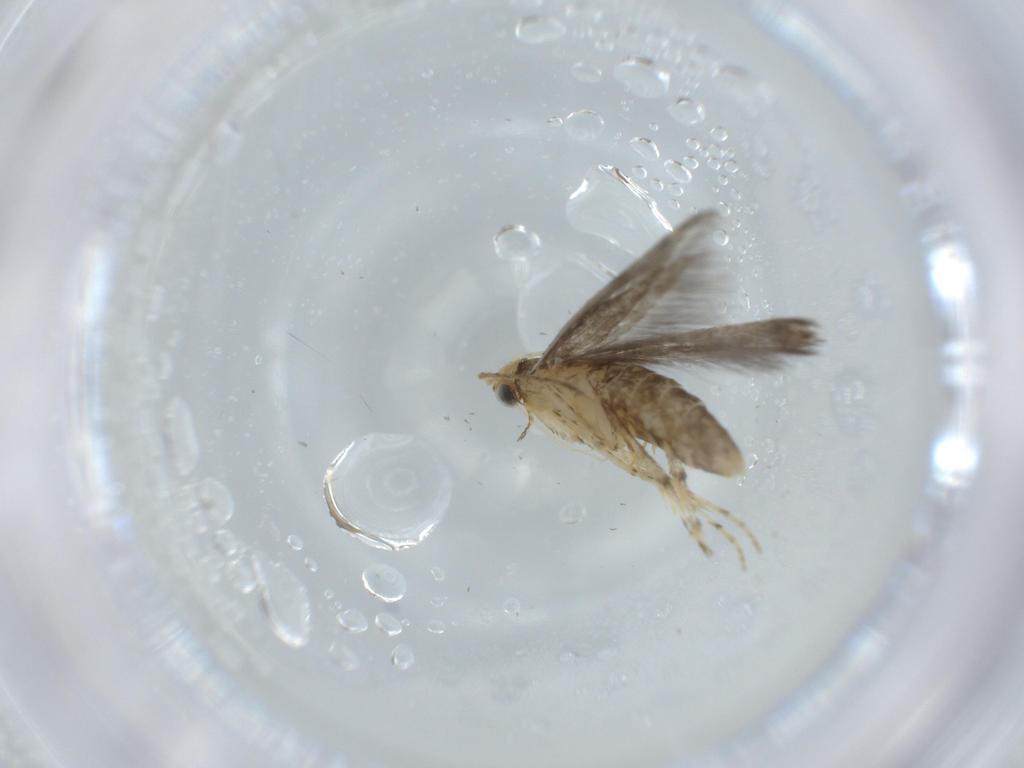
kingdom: Animalia
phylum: Arthropoda
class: Insecta
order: Lepidoptera
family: Argyresthiidae
